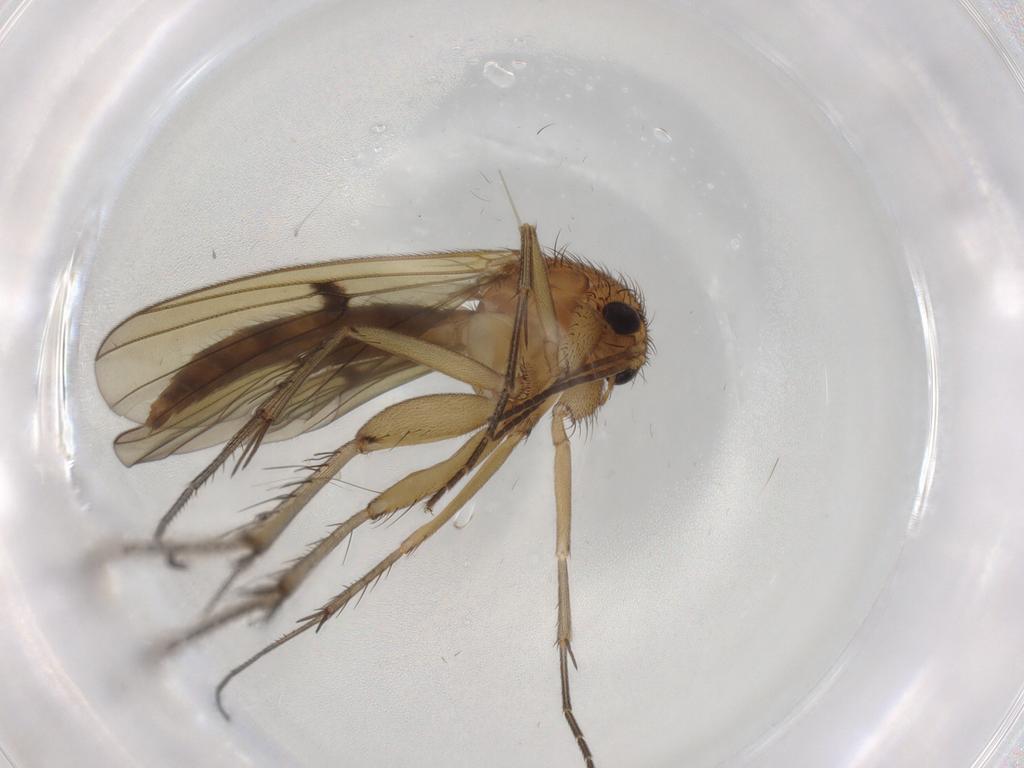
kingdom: Animalia
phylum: Arthropoda
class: Insecta
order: Diptera
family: Mycetophilidae
